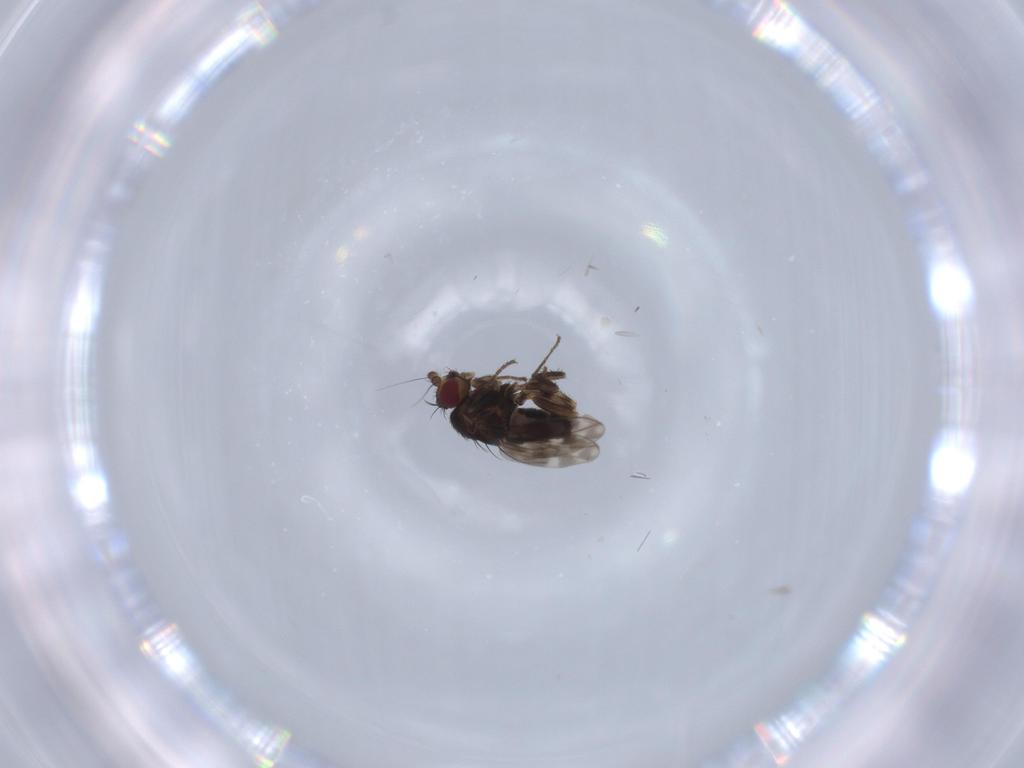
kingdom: Animalia
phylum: Arthropoda
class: Insecta
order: Diptera
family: Sphaeroceridae
